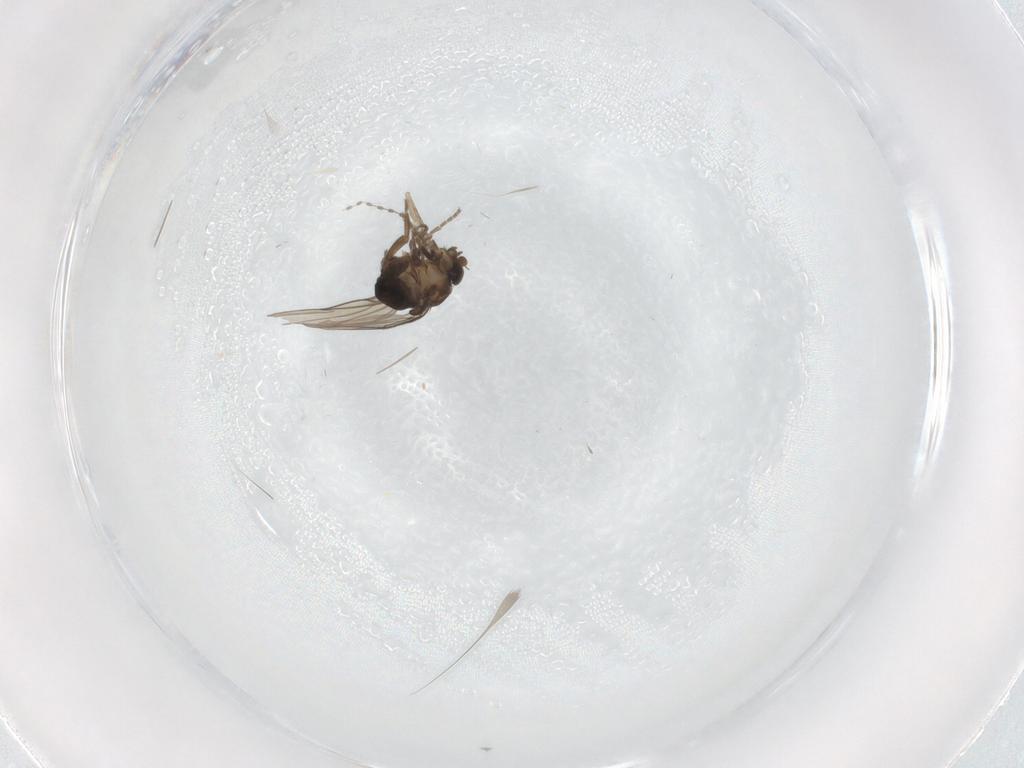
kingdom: Animalia
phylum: Arthropoda
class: Insecta
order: Diptera
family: Phoridae
